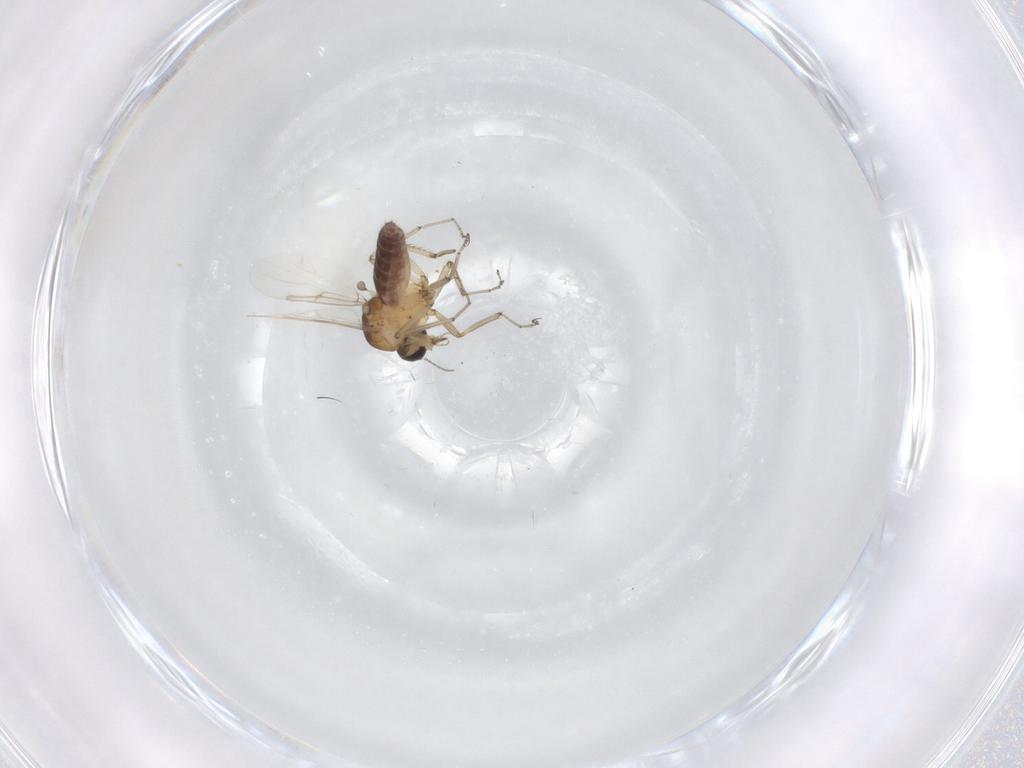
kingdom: Animalia
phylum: Arthropoda
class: Insecta
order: Diptera
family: Ceratopogonidae
